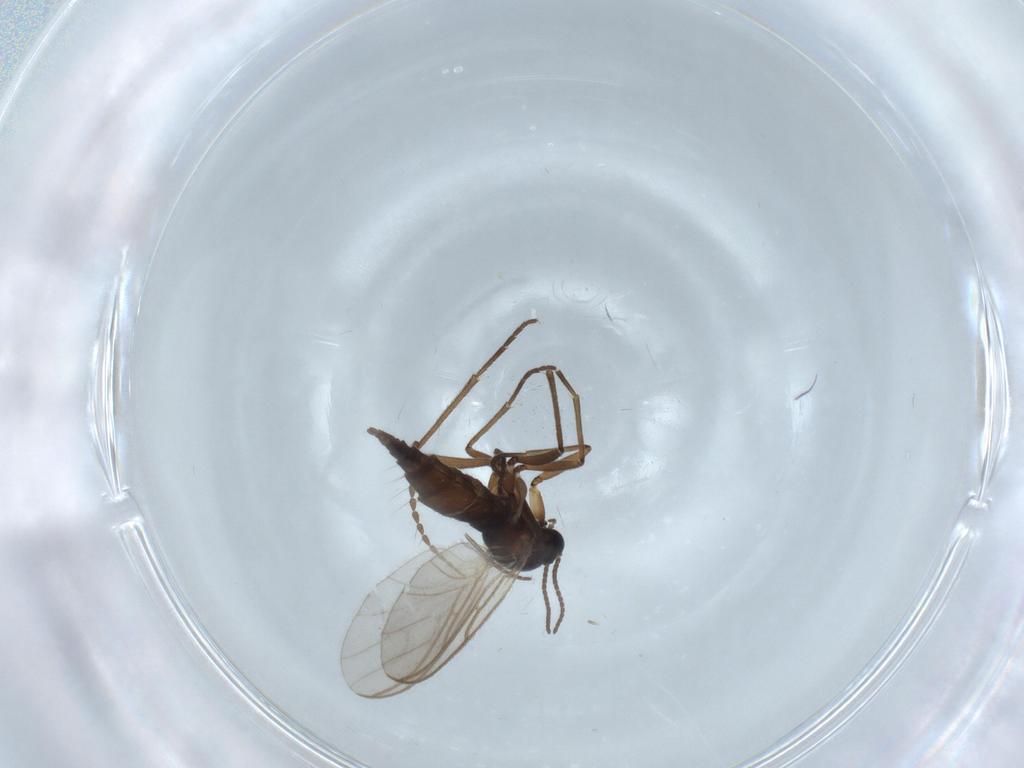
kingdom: Animalia
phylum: Arthropoda
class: Insecta
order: Diptera
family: Sciaridae
